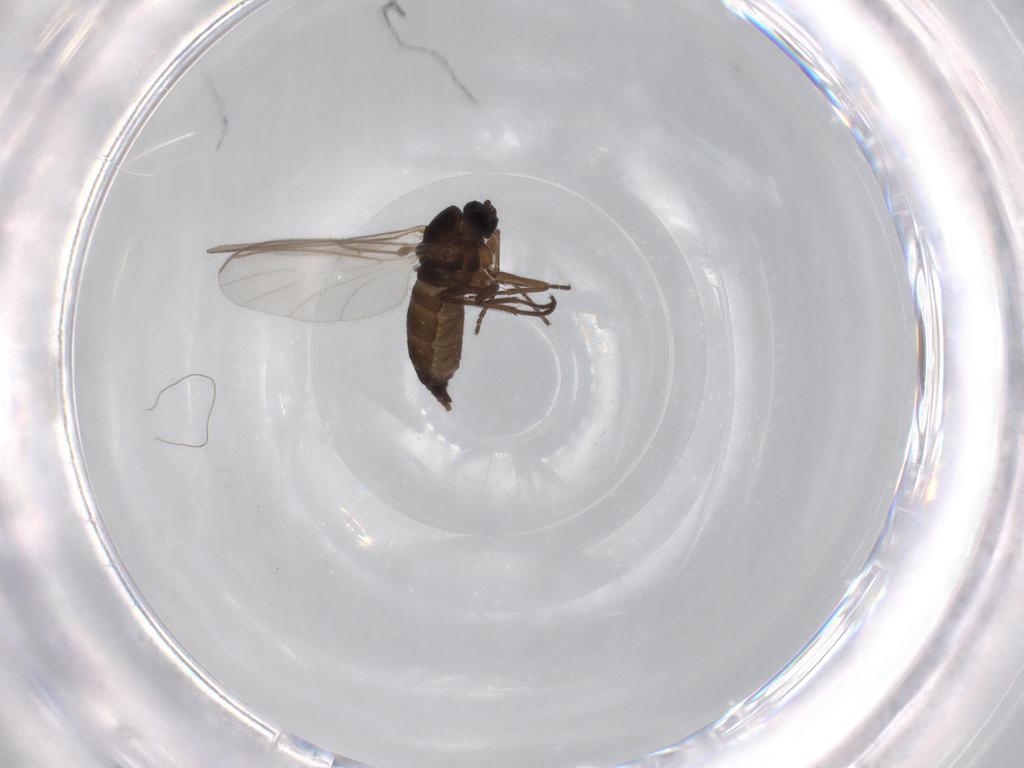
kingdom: Animalia
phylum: Arthropoda
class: Insecta
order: Diptera
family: Sciaridae
